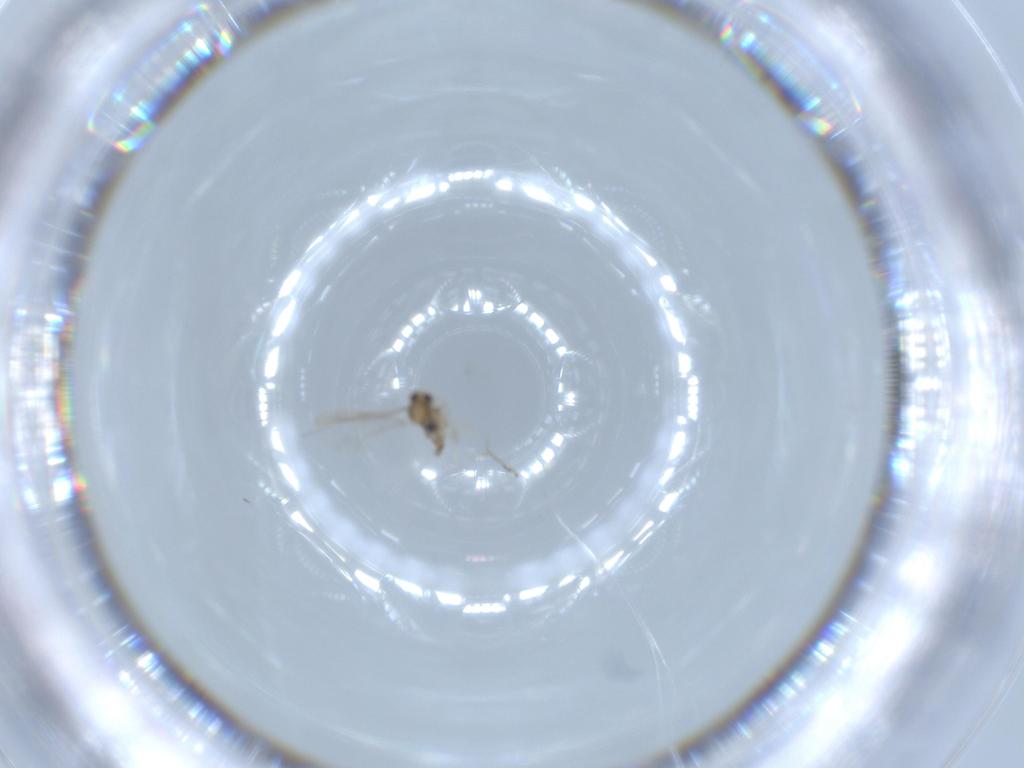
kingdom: Animalia
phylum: Arthropoda
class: Insecta
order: Diptera
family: Cecidomyiidae
